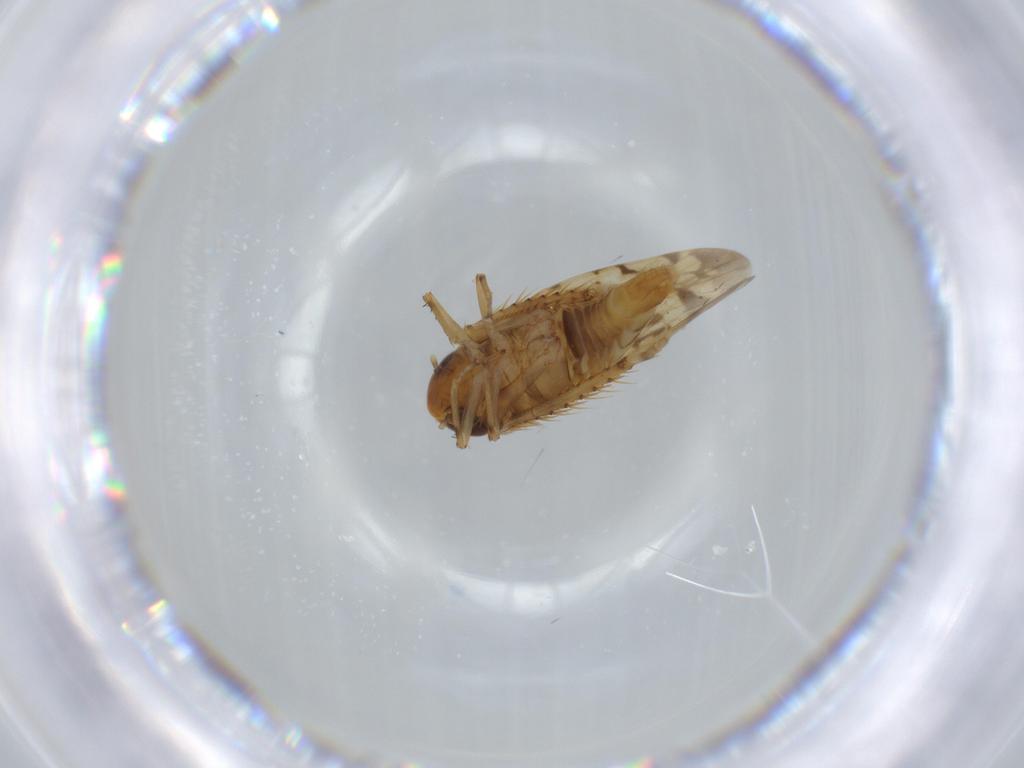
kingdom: Animalia
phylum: Arthropoda
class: Insecta
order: Hemiptera
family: Cicadellidae
